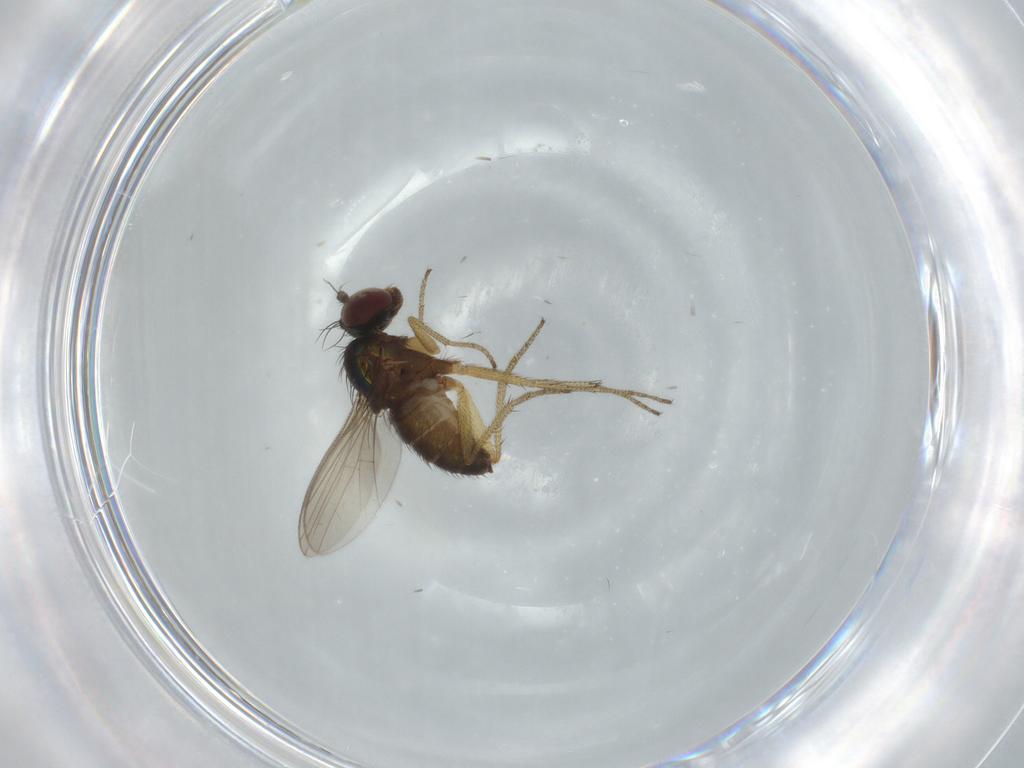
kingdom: Animalia
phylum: Arthropoda
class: Insecta
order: Diptera
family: Dolichopodidae
